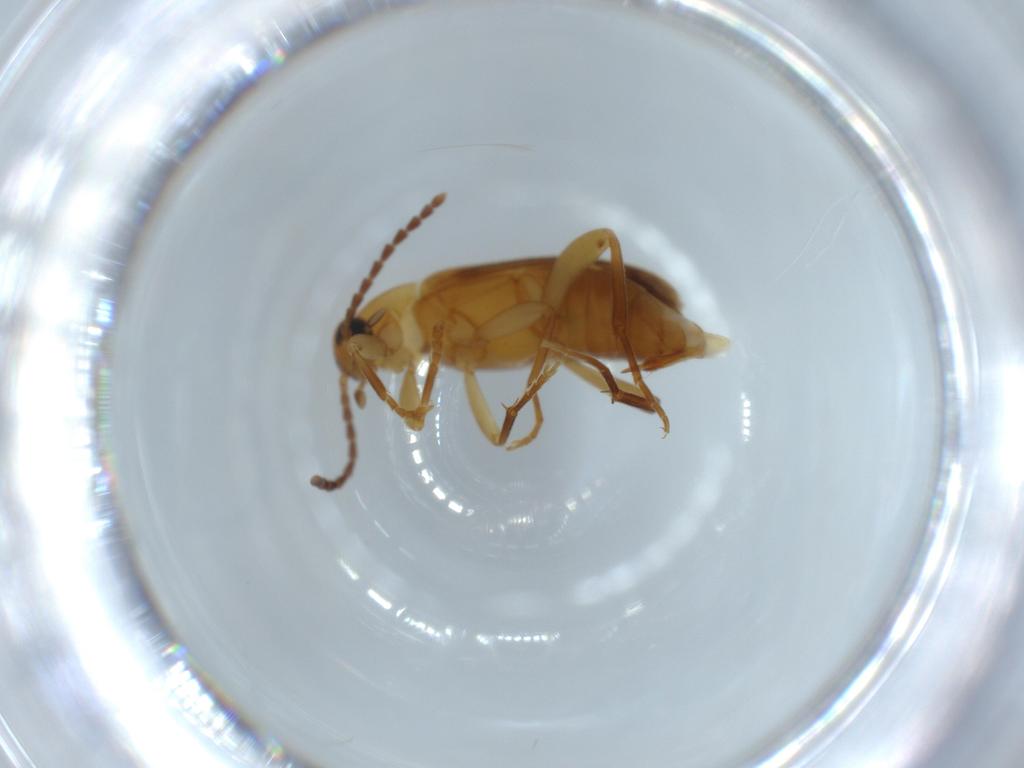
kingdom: Animalia
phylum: Arthropoda
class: Insecta
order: Coleoptera
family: Scraptiidae
